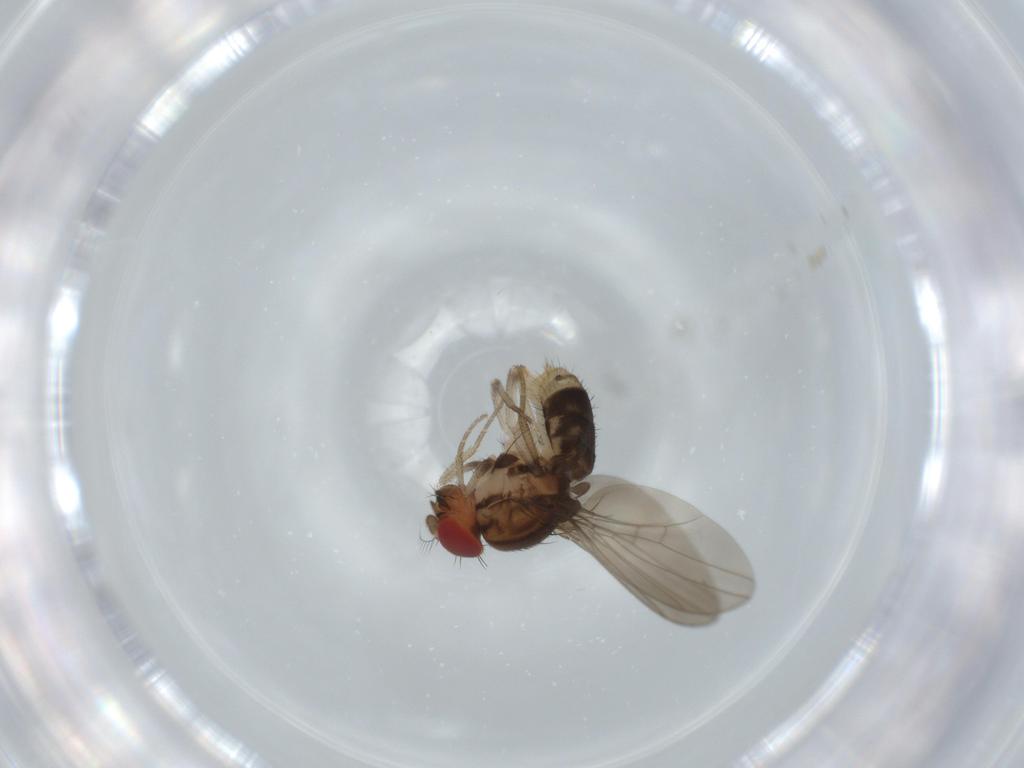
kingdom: Animalia
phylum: Arthropoda
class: Insecta
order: Diptera
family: Drosophilidae
